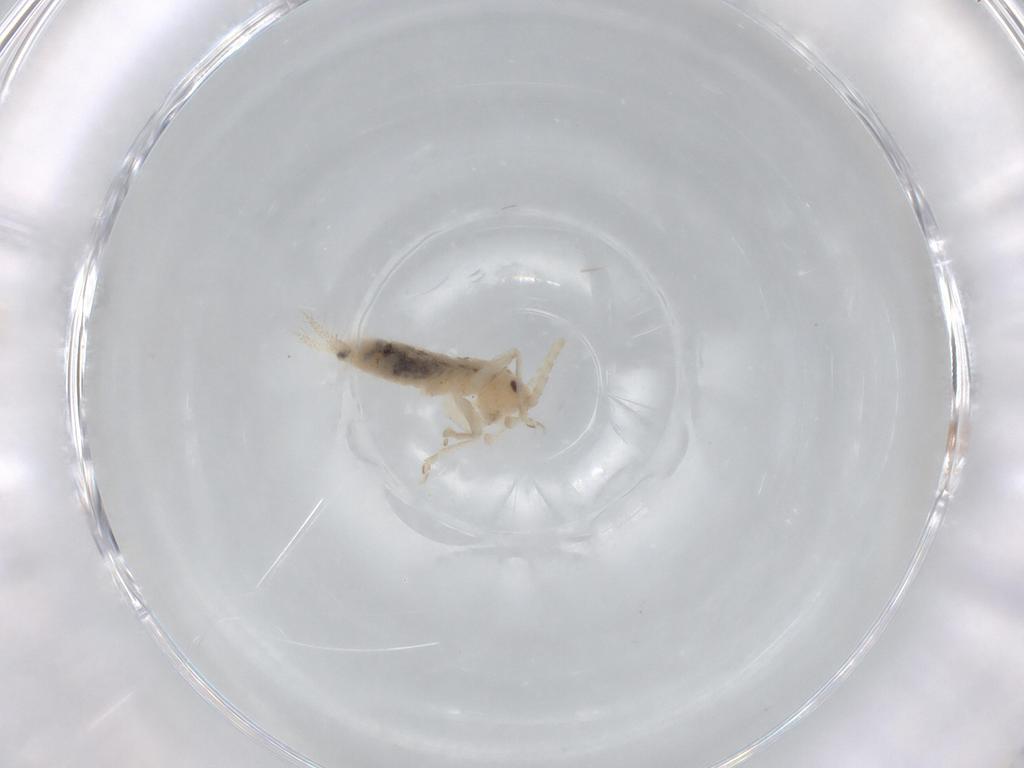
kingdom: Animalia
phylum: Arthropoda
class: Insecta
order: Orthoptera
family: Trigonidiidae
